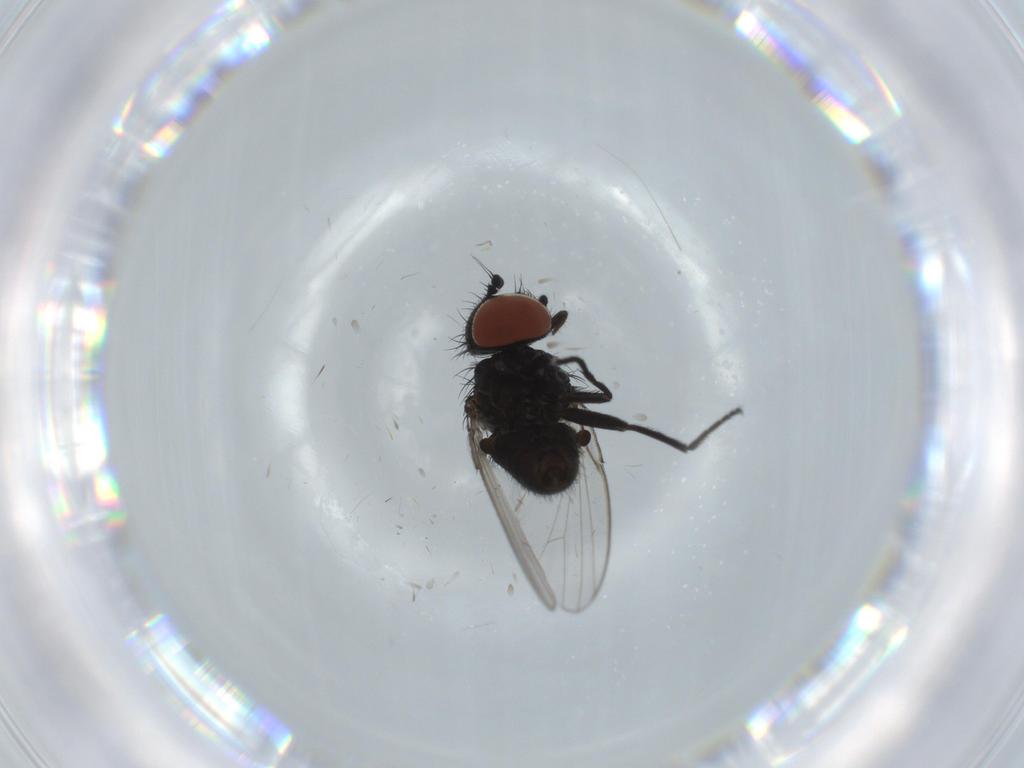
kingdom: Animalia
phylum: Arthropoda
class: Insecta
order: Diptera
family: Milichiidae
